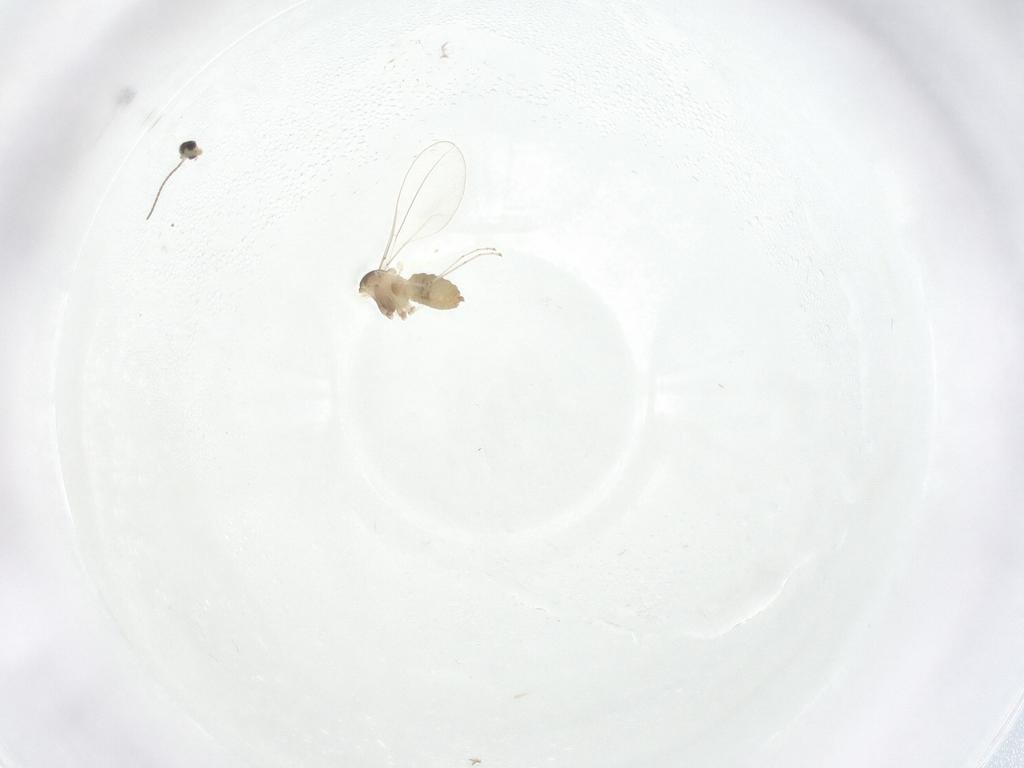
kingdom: Animalia
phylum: Arthropoda
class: Insecta
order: Diptera
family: Cecidomyiidae
